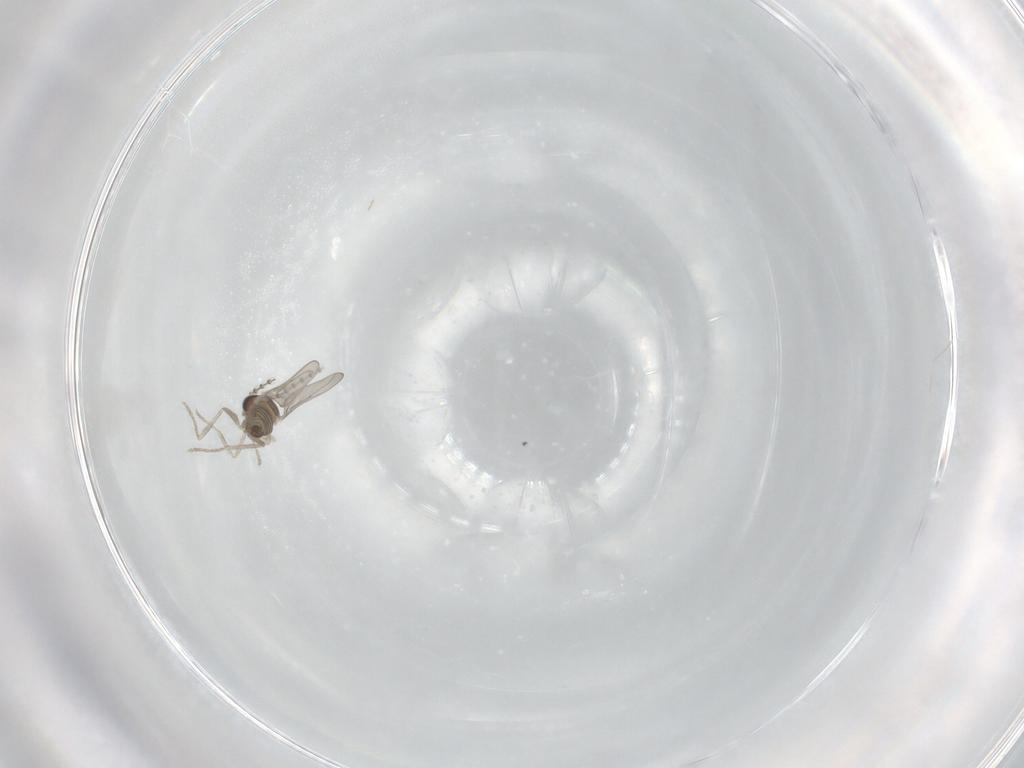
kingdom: Animalia
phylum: Arthropoda
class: Insecta
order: Diptera
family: Cecidomyiidae
